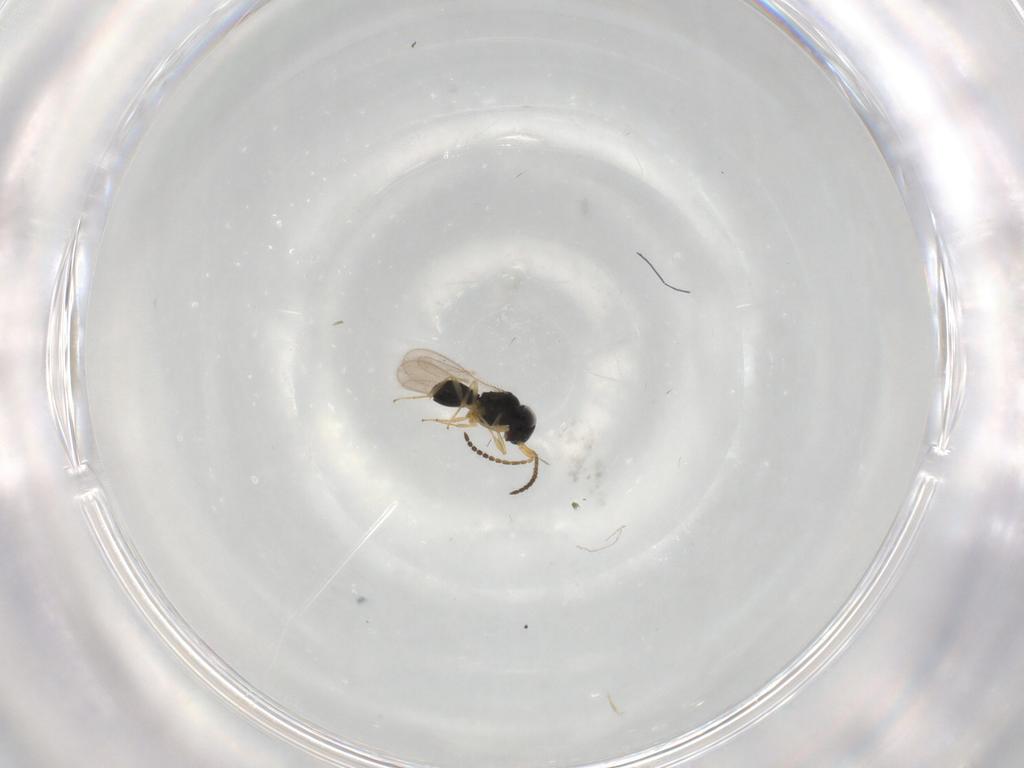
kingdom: Animalia
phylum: Arthropoda
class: Insecta
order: Hymenoptera
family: Scelionidae
